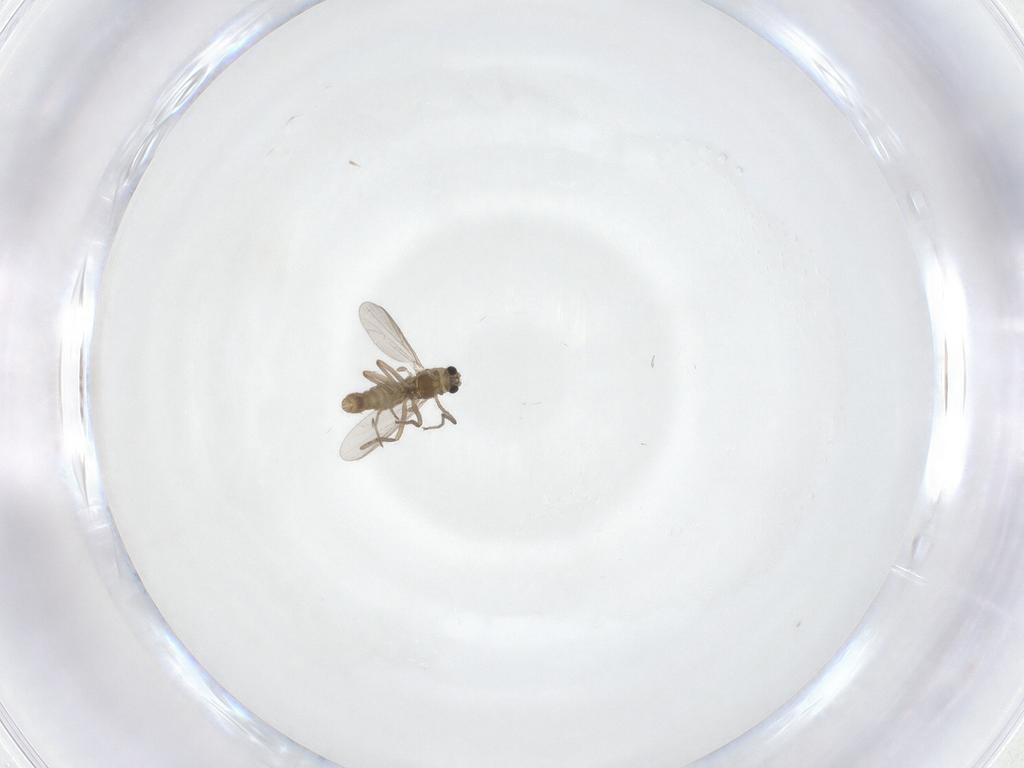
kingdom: Animalia
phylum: Arthropoda
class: Insecta
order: Diptera
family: Chironomidae
